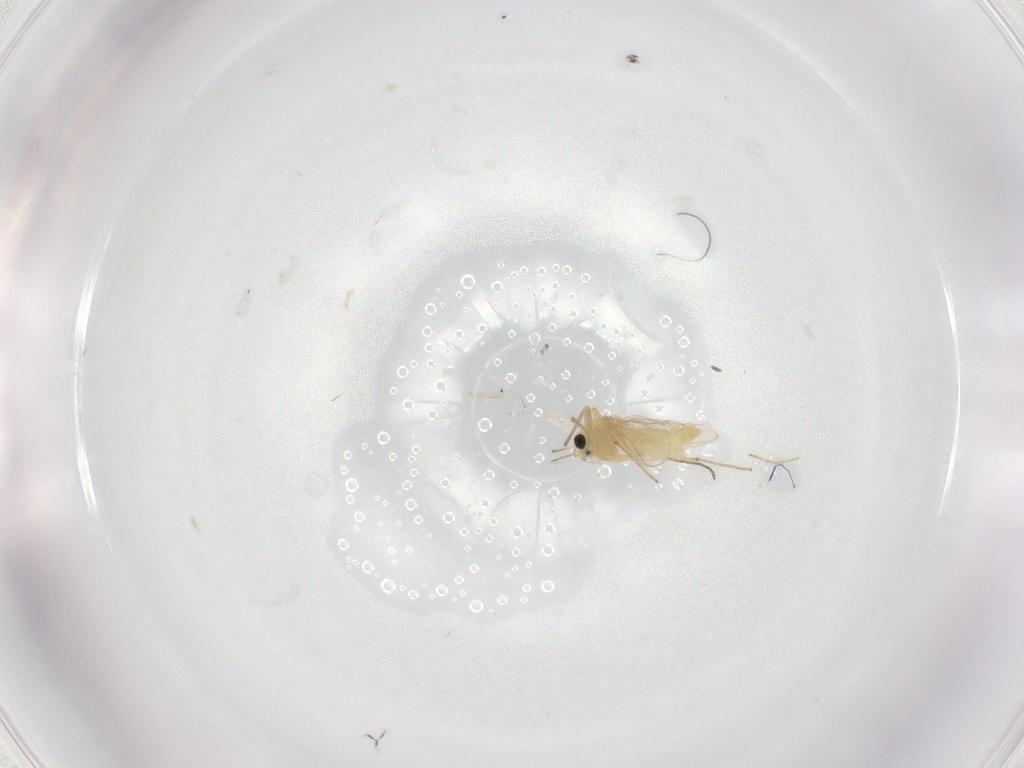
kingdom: Animalia
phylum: Arthropoda
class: Insecta
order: Diptera
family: Chironomidae
